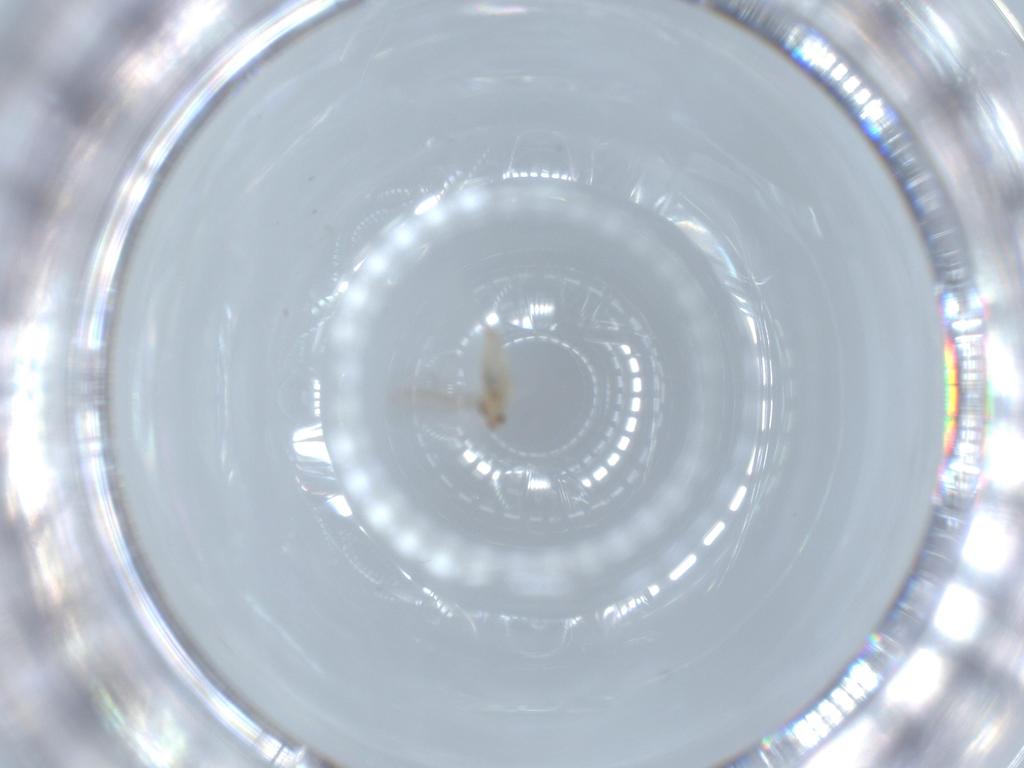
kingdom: Animalia
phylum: Arthropoda
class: Insecta
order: Diptera
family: Cecidomyiidae
